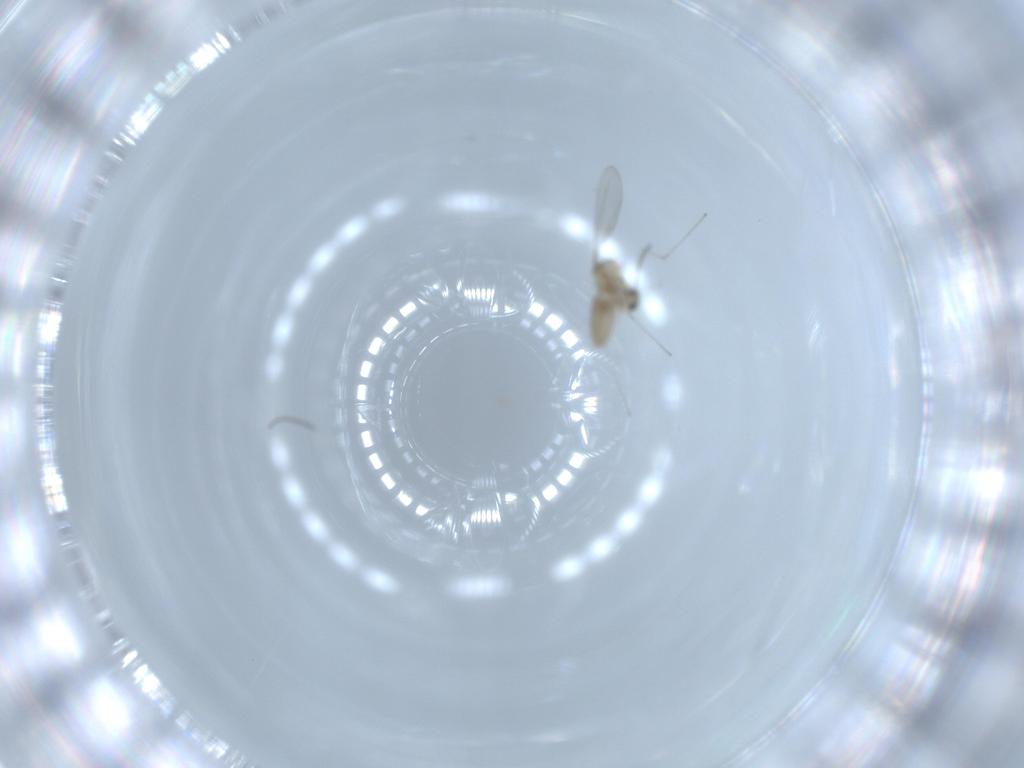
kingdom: Animalia
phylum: Arthropoda
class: Insecta
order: Diptera
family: Cecidomyiidae
